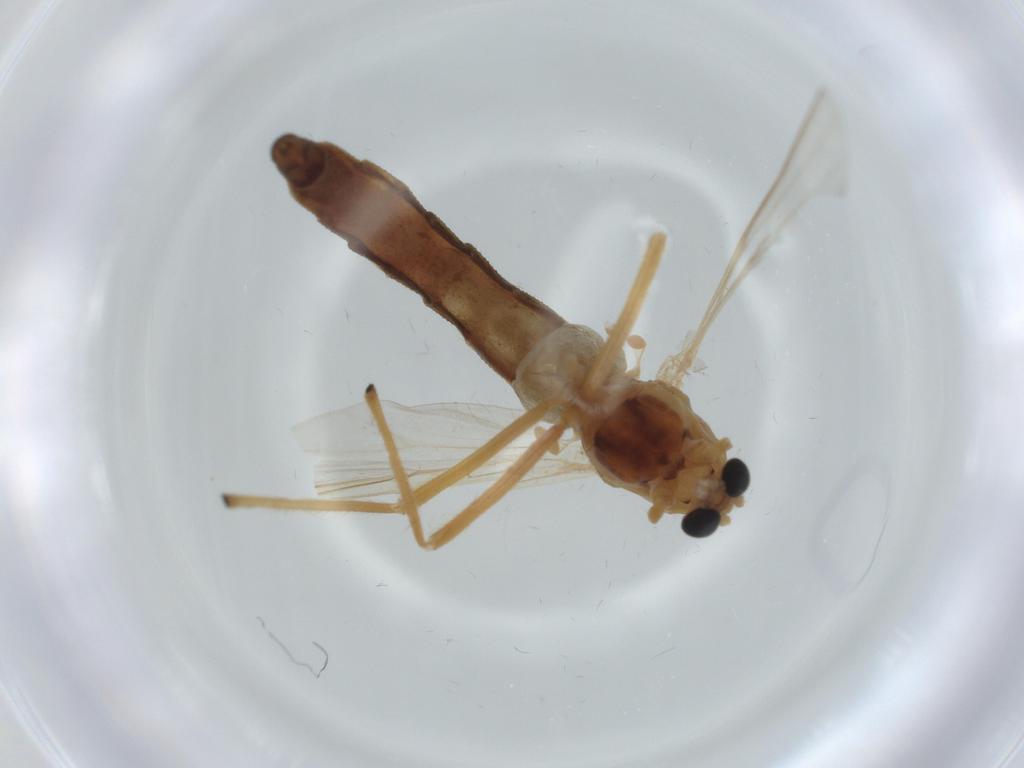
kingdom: Animalia
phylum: Arthropoda
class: Insecta
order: Diptera
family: Chironomidae
